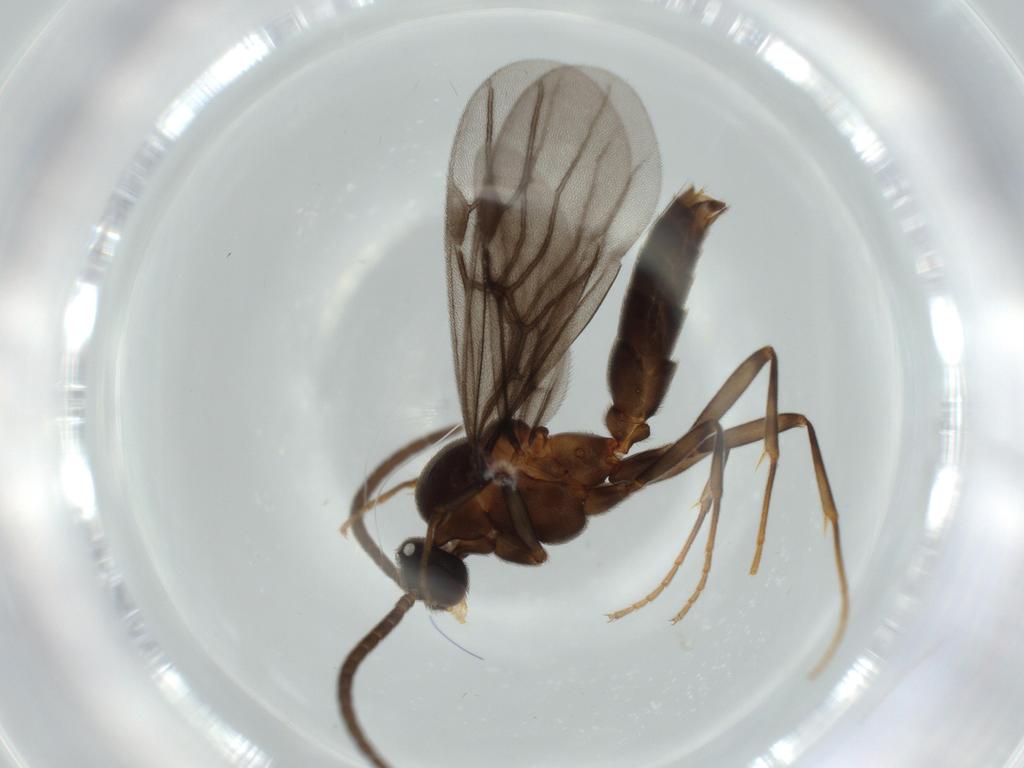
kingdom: Animalia
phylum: Arthropoda
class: Insecta
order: Hymenoptera
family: Formicidae
